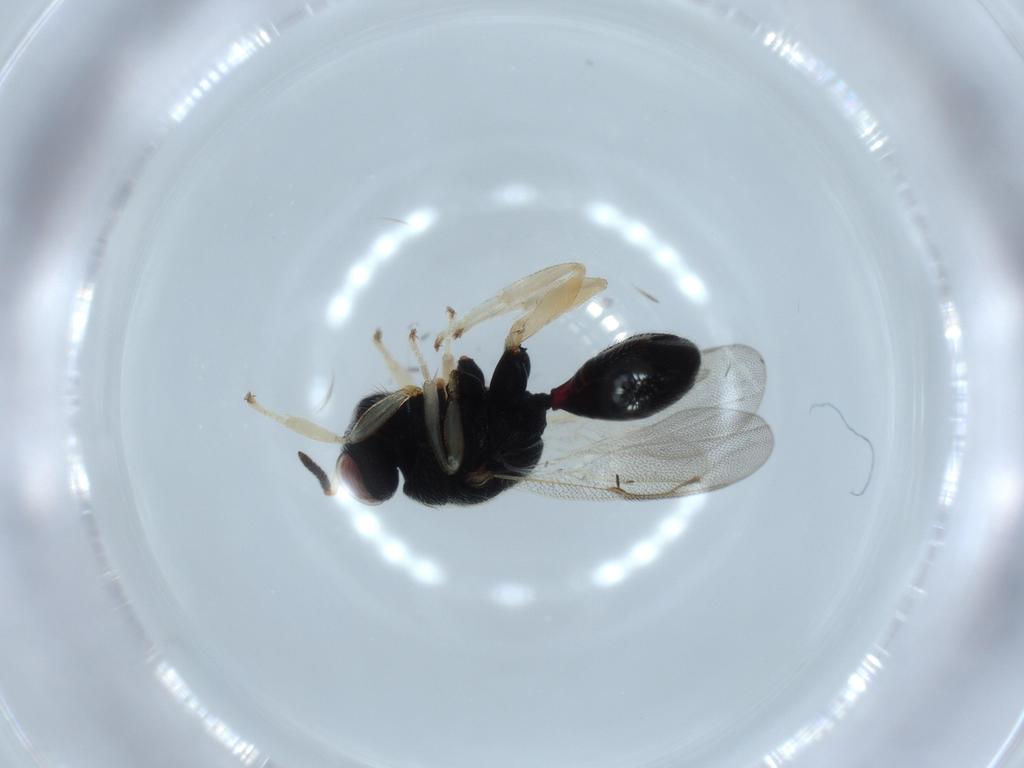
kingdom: Animalia
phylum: Arthropoda
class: Insecta
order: Hymenoptera
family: Eurytomidae
